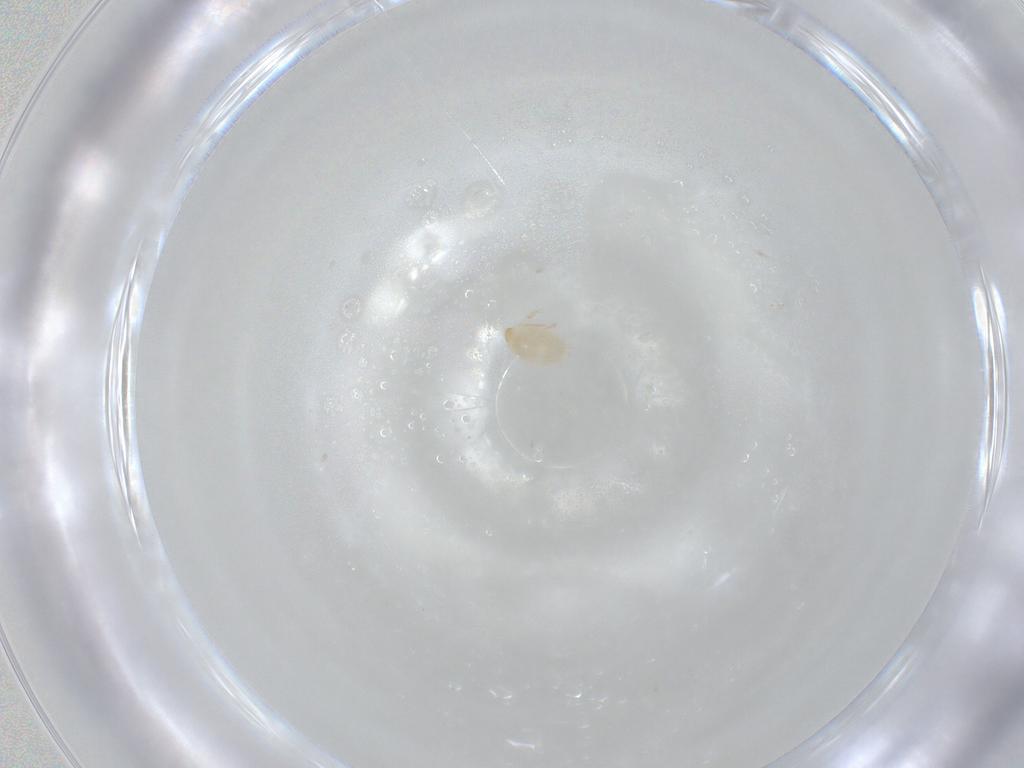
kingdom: Animalia
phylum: Arthropoda
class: Arachnida
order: Trombidiformes
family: Microtrombidiidae
